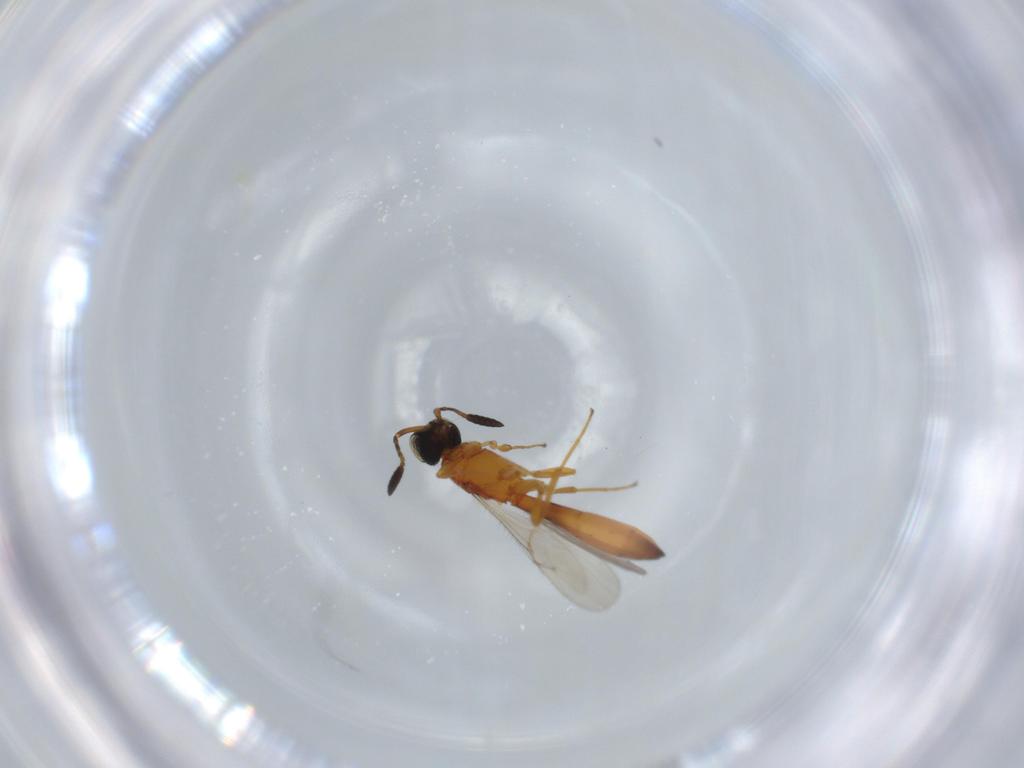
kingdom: Animalia
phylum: Arthropoda
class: Insecta
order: Hymenoptera
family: Scelionidae
